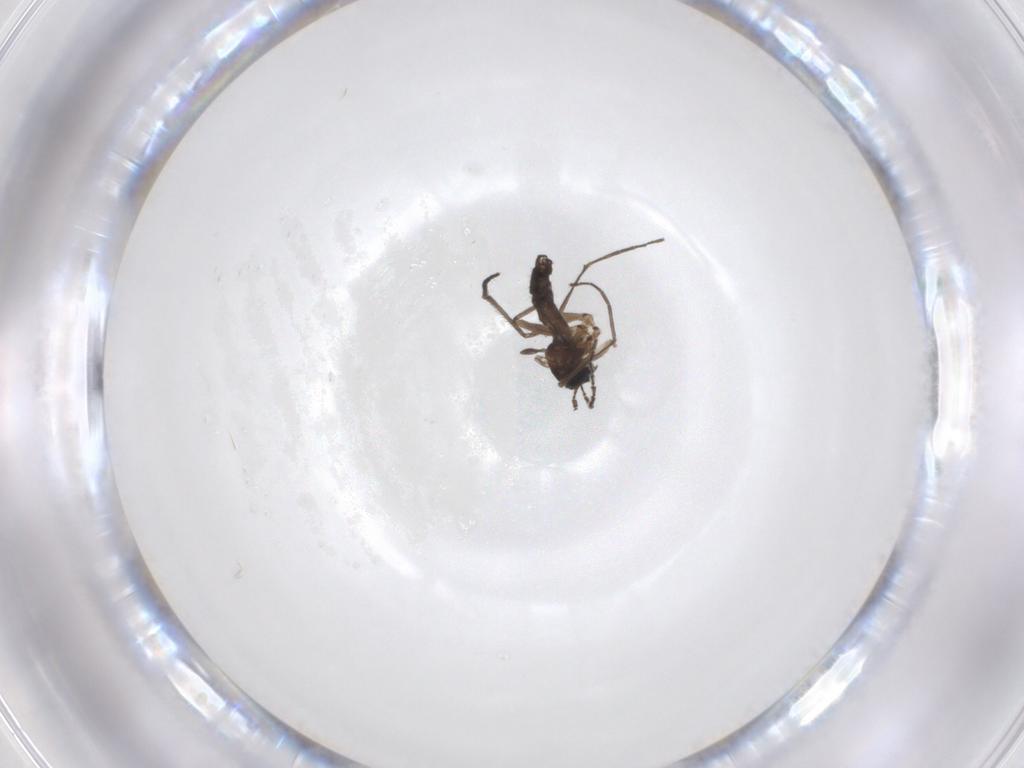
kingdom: Animalia
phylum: Arthropoda
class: Insecta
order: Diptera
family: Sciaridae
